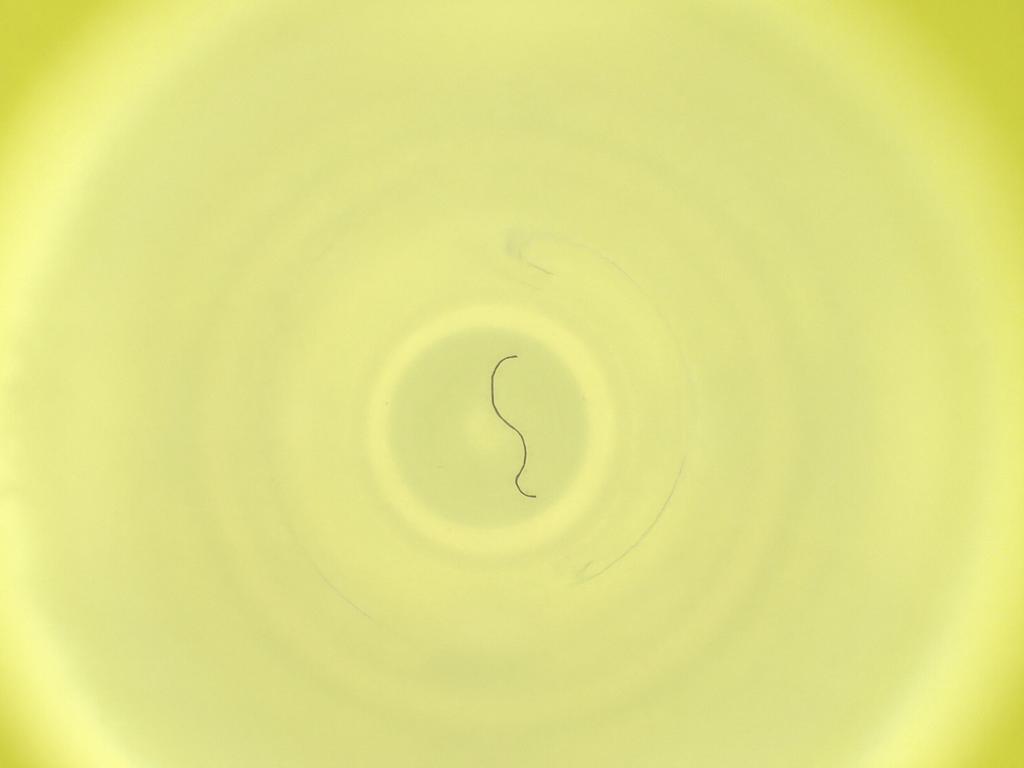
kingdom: Animalia
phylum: Arthropoda
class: Insecta
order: Diptera
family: Cecidomyiidae
